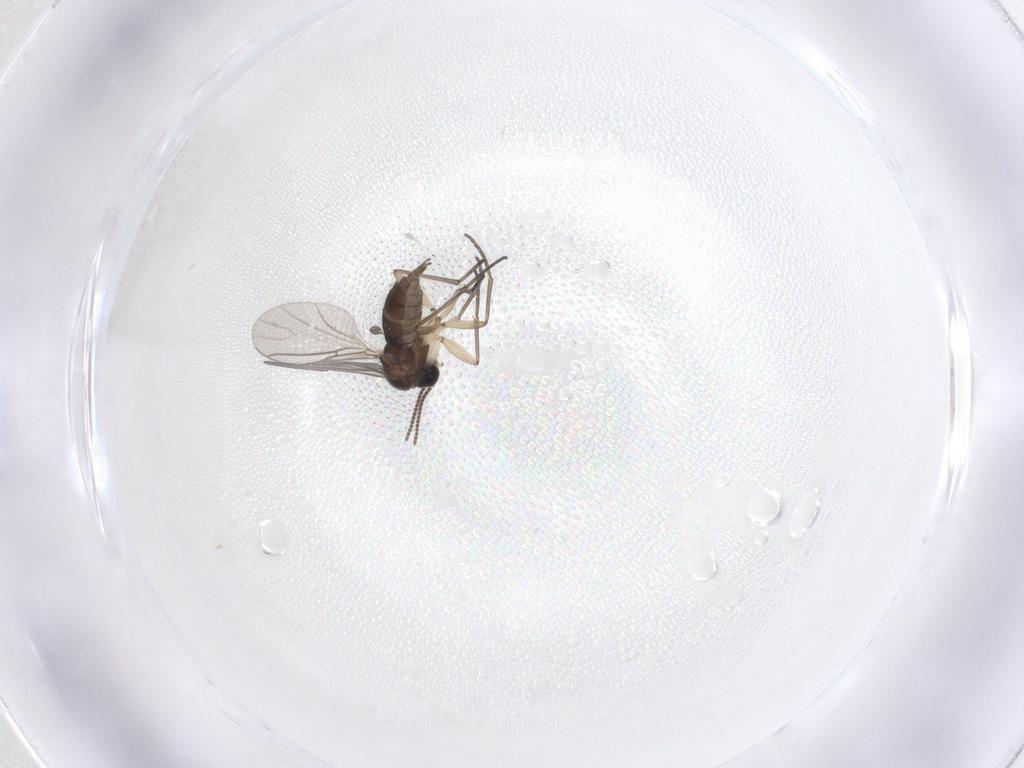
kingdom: Animalia
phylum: Arthropoda
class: Insecta
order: Diptera
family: Sciaridae
